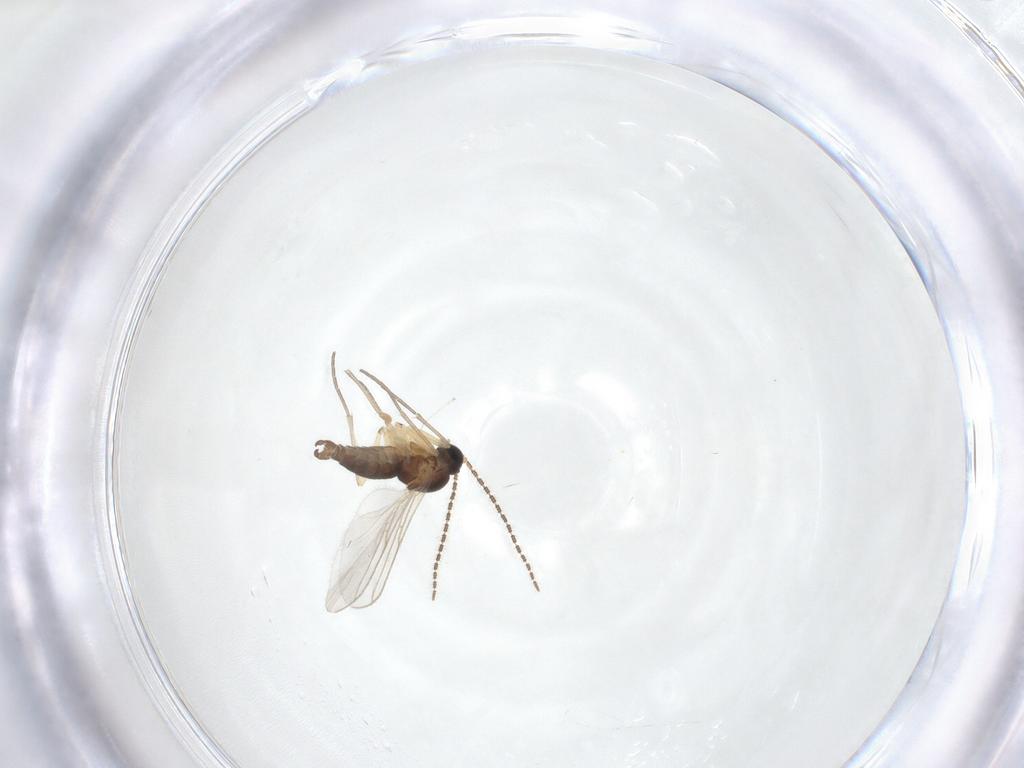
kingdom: Animalia
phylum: Arthropoda
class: Insecta
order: Diptera
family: Sciaridae
